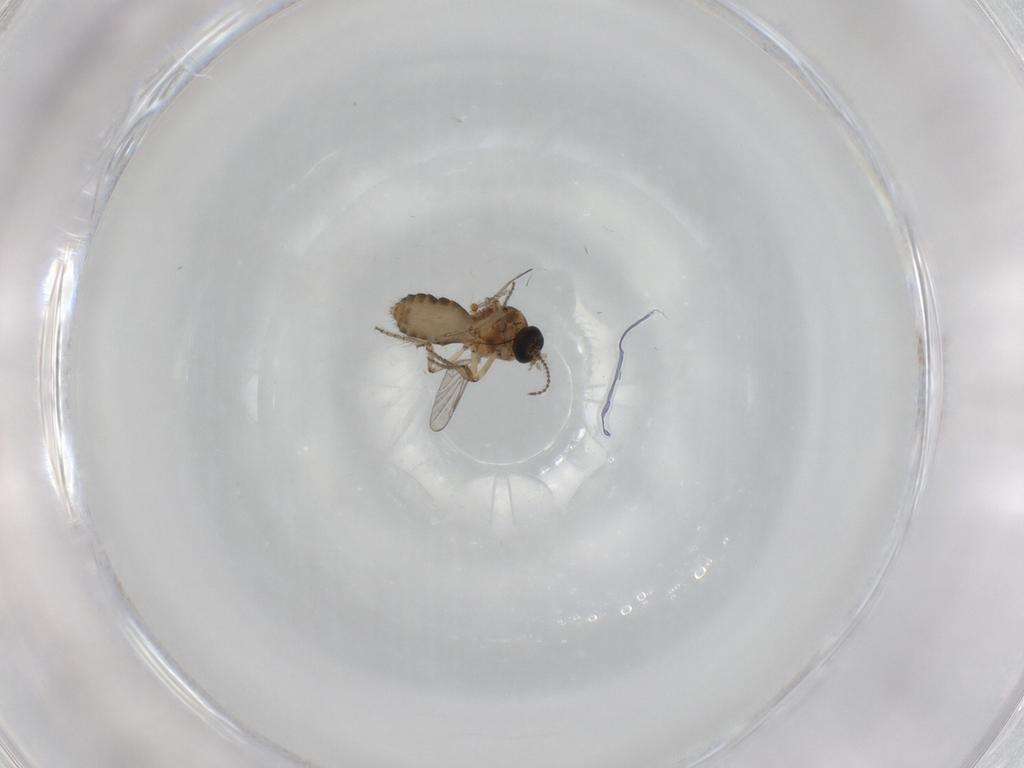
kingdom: Animalia
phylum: Arthropoda
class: Insecta
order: Diptera
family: Ceratopogonidae
